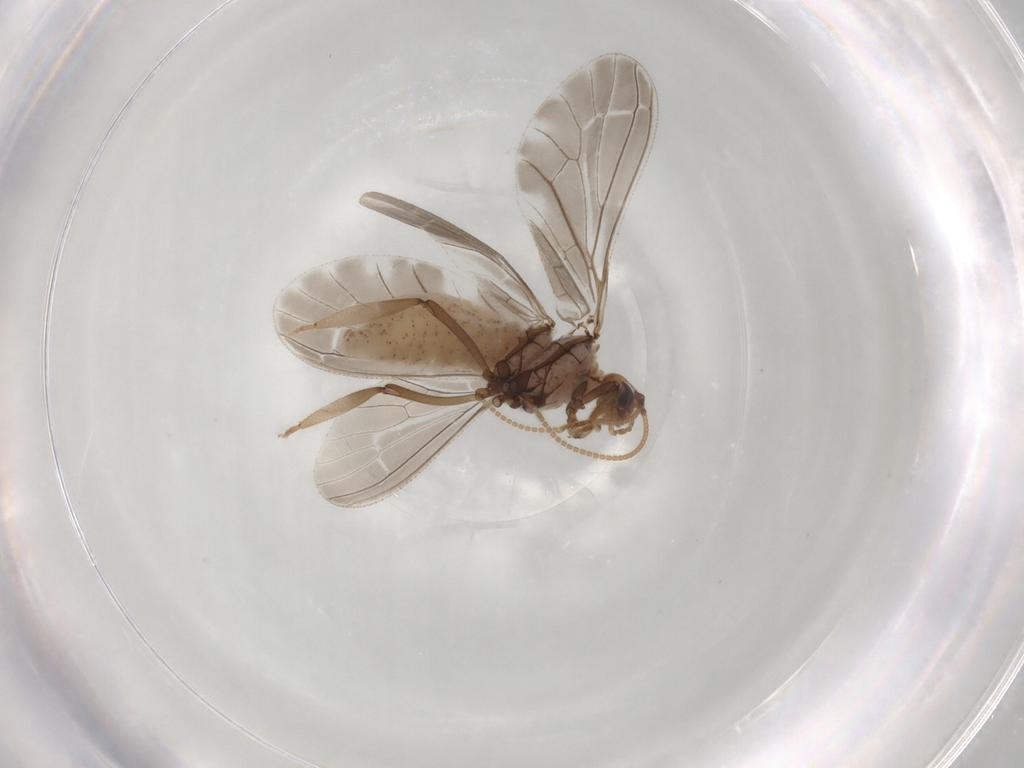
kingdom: Animalia
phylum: Arthropoda
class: Insecta
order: Neuroptera
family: Coniopterygidae
